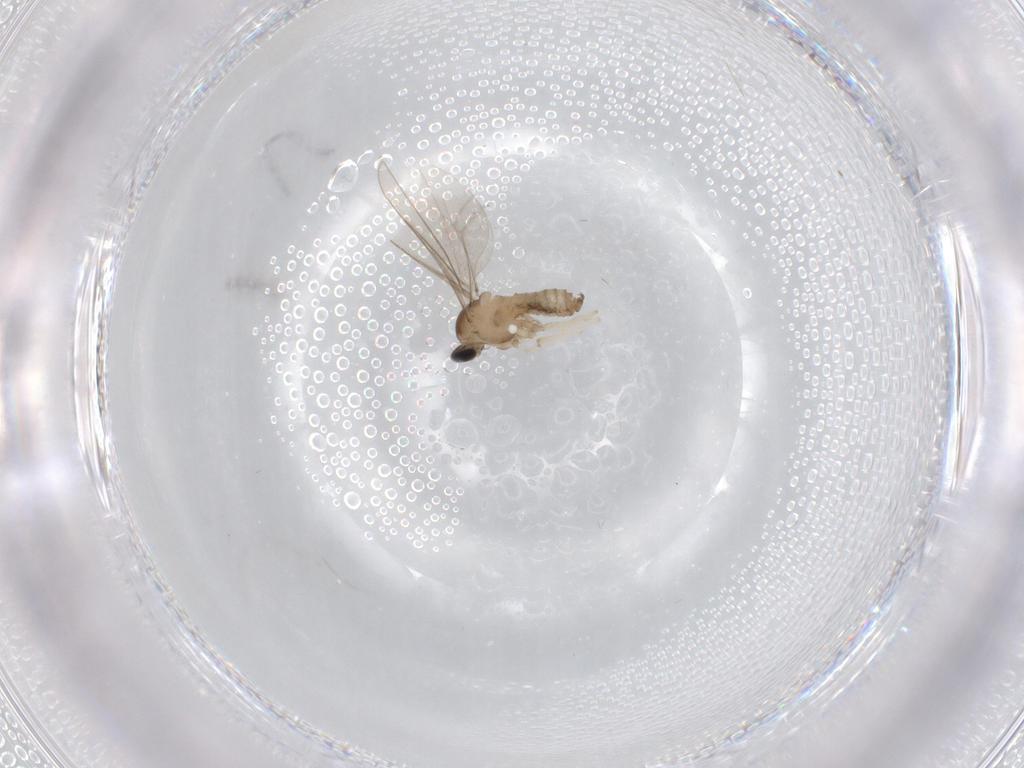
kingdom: Animalia
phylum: Arthropoda
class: Insecta
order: Diptera
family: Cecidomyiidae
